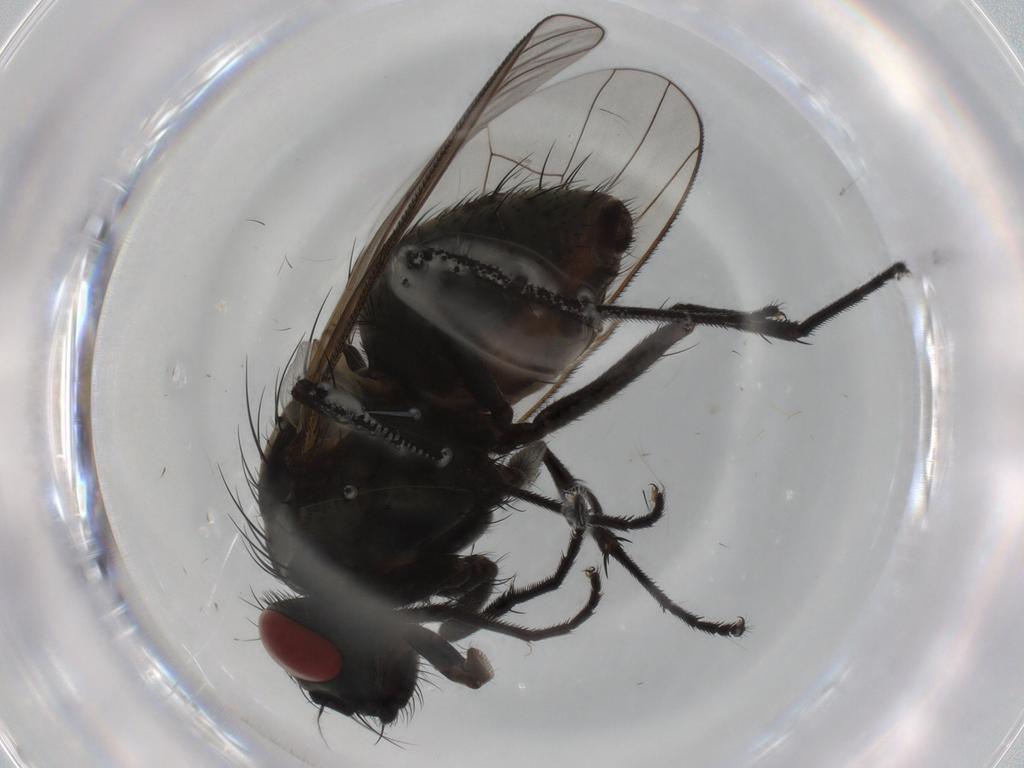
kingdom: Animalia
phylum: Arthropoda
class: Insecta
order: Diptera
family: Muscidae
